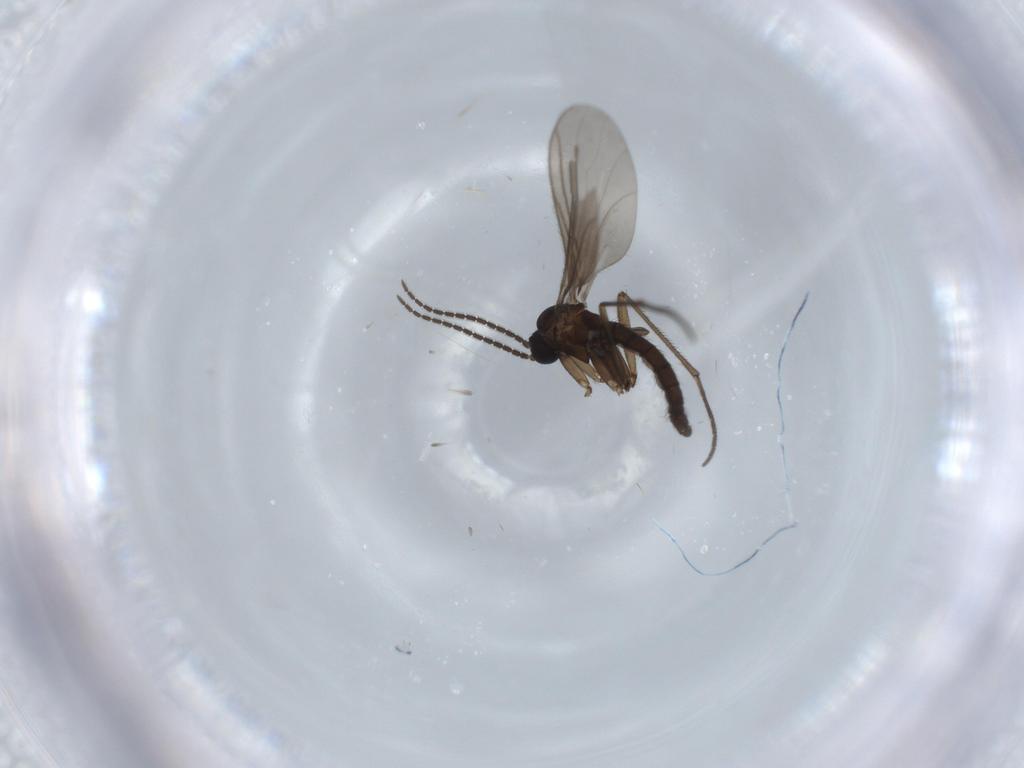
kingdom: Animalia
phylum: Arthropoda
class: Insecta
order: Diptera
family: Sciaridae
